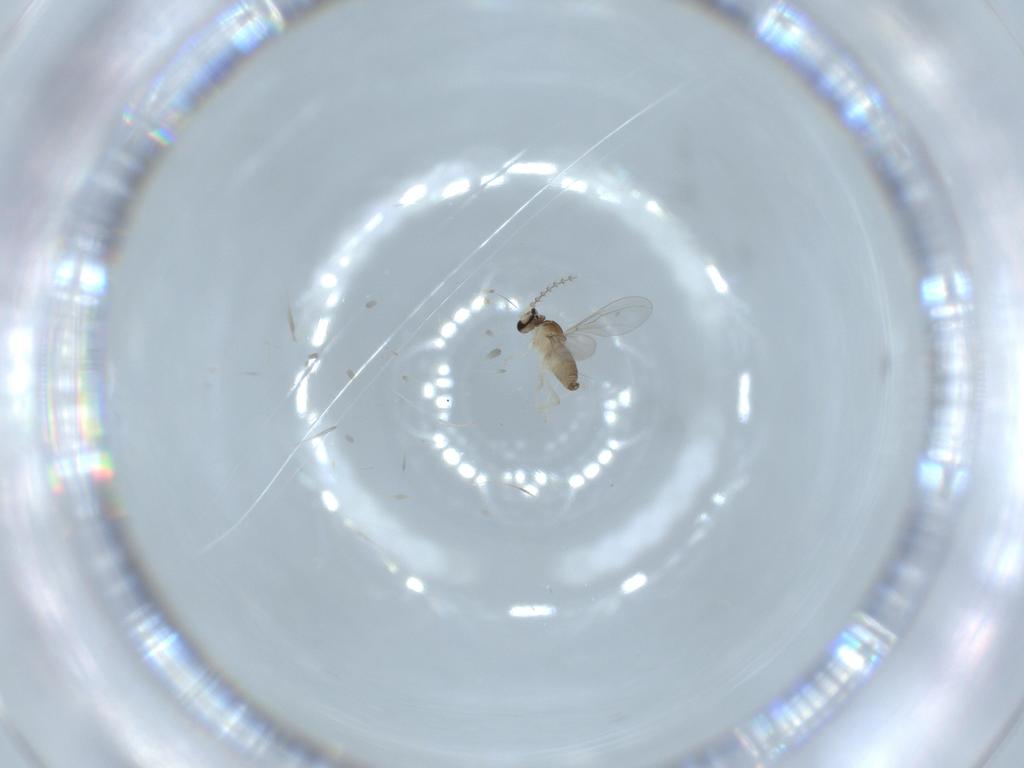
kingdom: Animalia
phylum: Arthropoda
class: Insecta
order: Diptera
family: Cecidomyiidae
